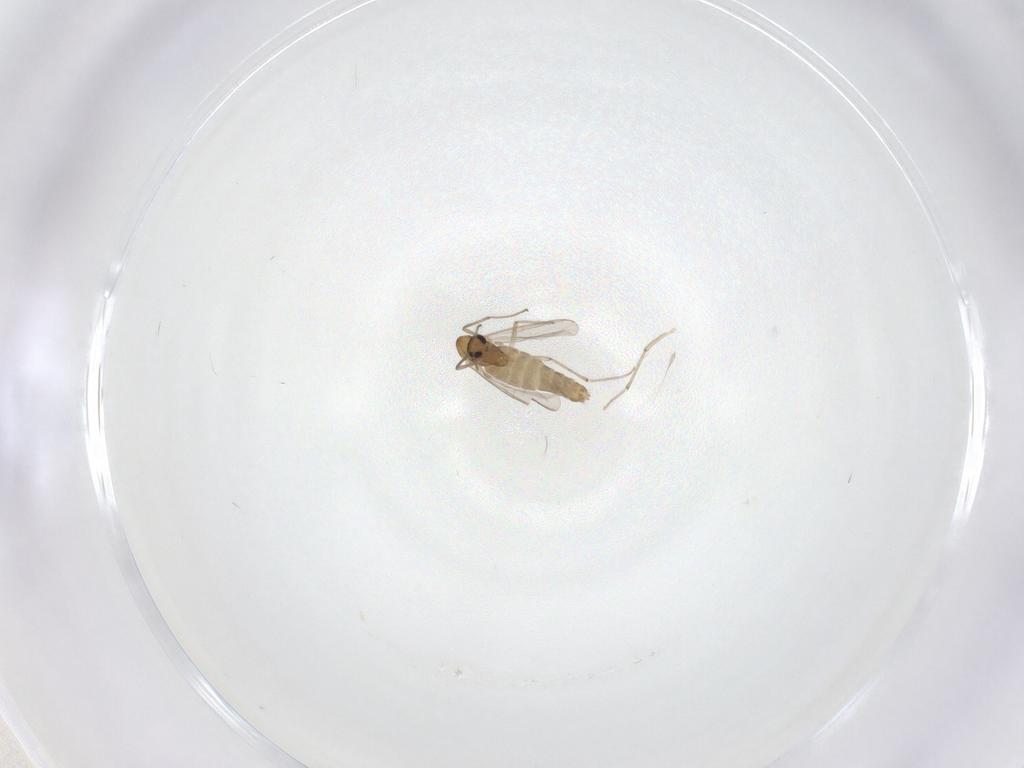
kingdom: Animalia
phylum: Arthropoda
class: Insecta
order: Diptera
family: Chironomidae
